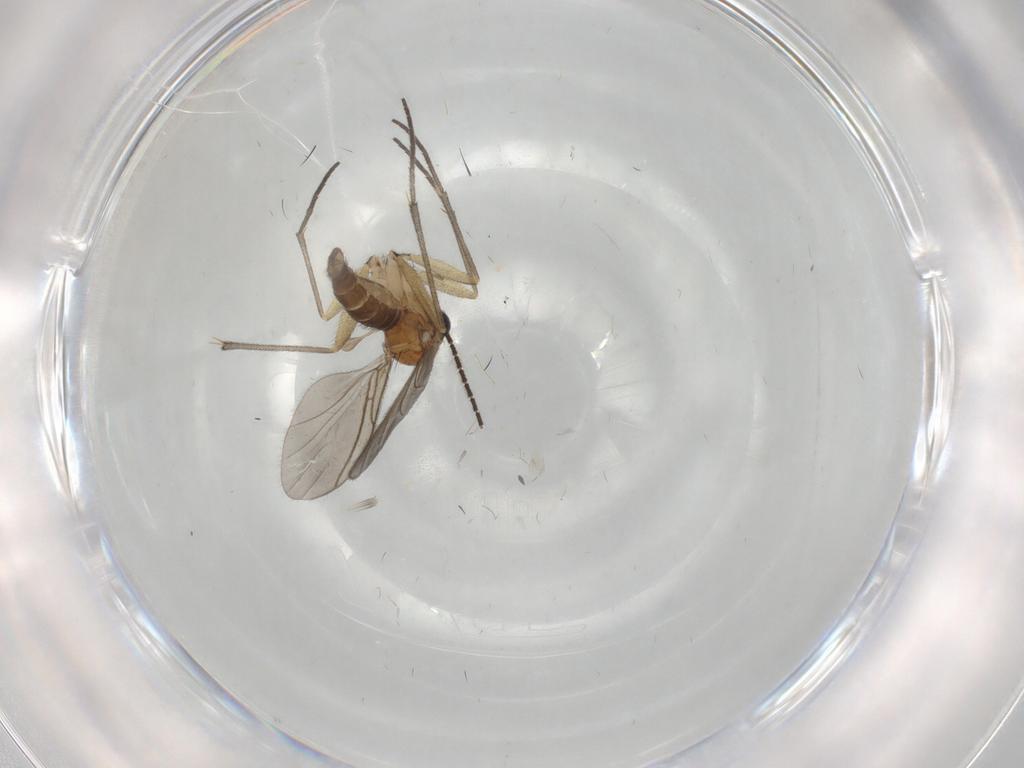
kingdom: Animalia
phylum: Arthropoda
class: Insecta
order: Diptera
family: Sciaridae
